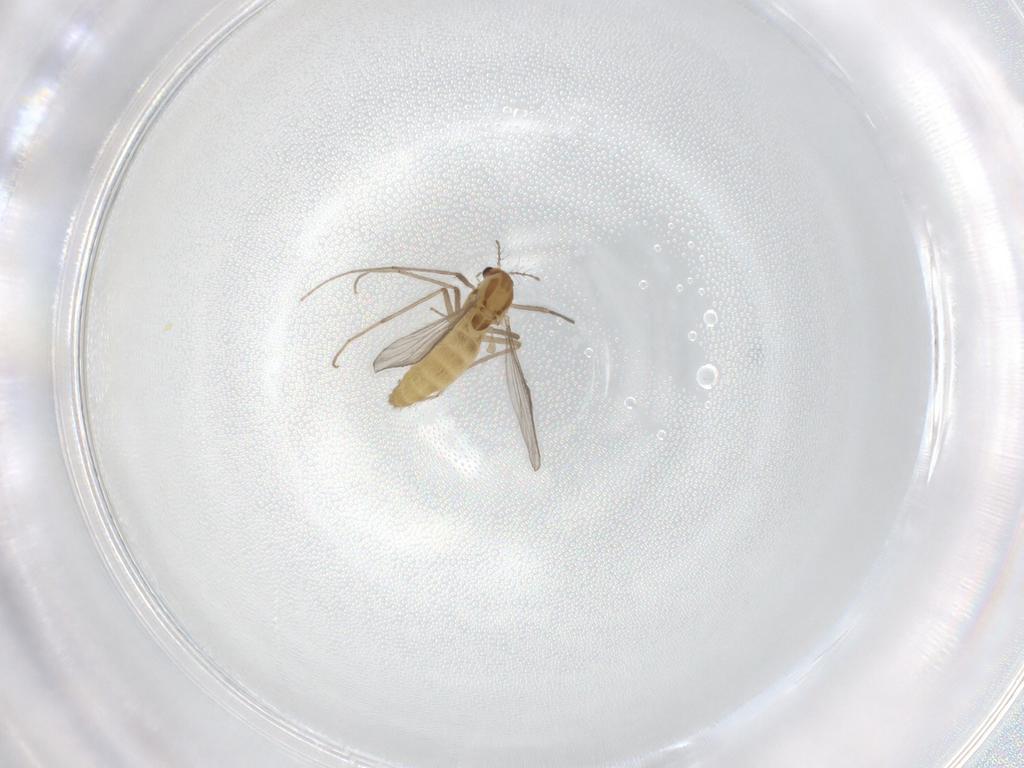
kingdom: Animalia
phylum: Arthropoda
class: Insecta
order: Diptera
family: Chironomidae
